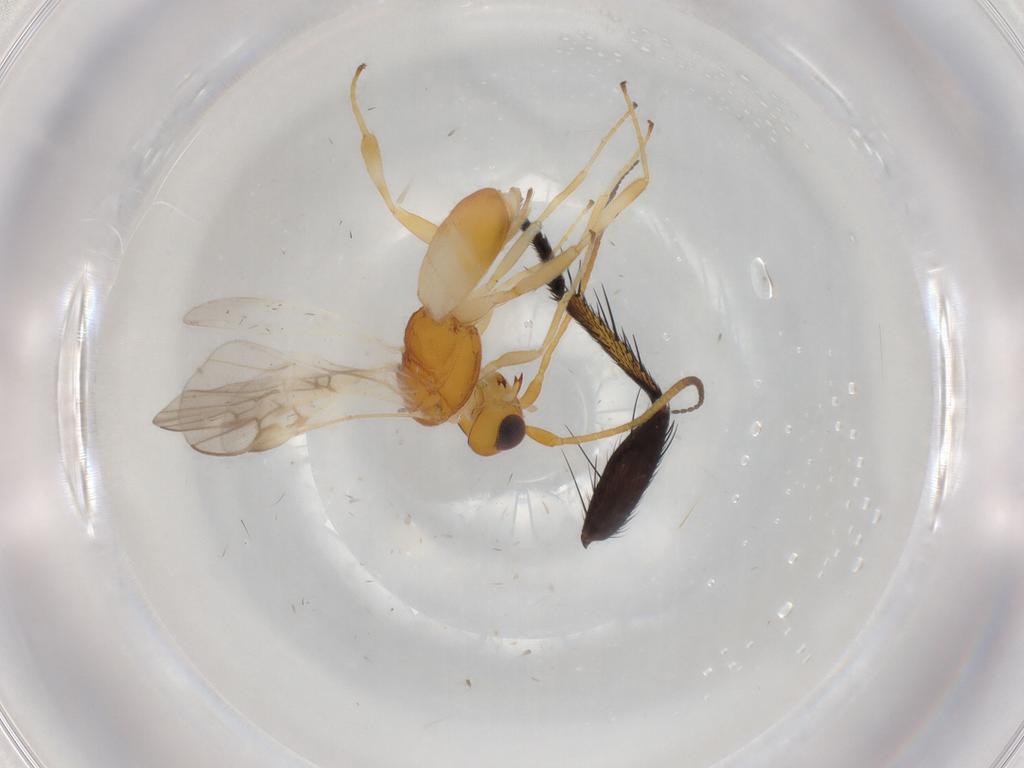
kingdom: Animalia
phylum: Arthropoda
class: Insecta
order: Hymenoptera
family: Braconidae
